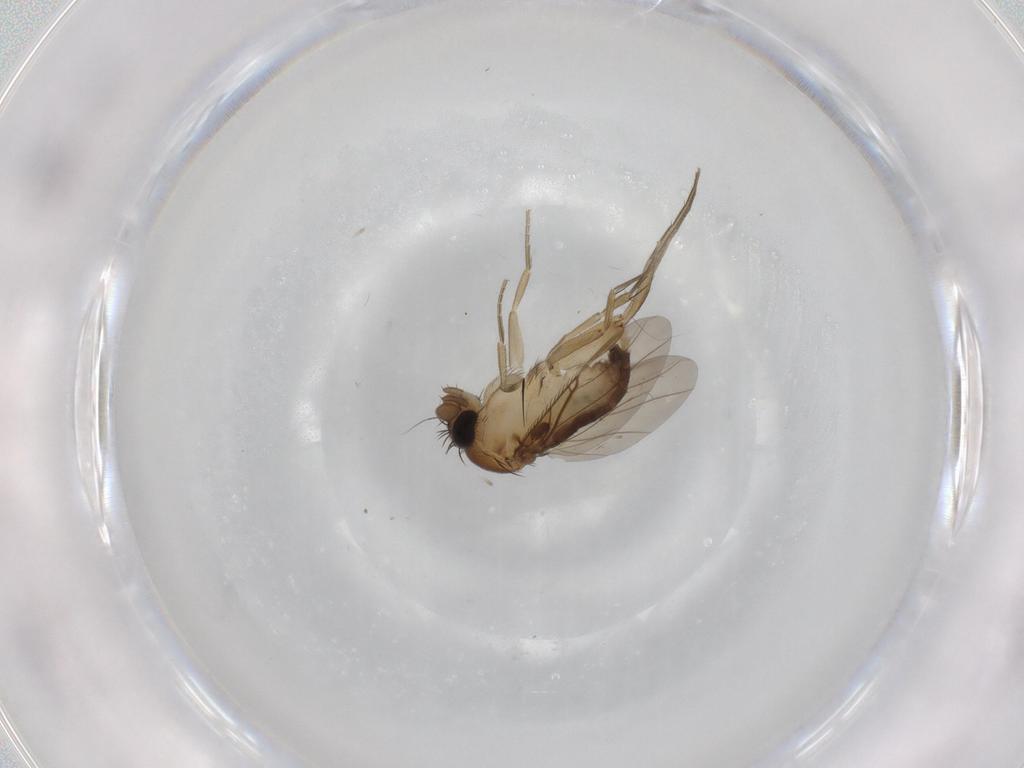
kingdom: Animalia
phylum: Arthropoda
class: Insecta
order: Diptera
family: Phoridae
